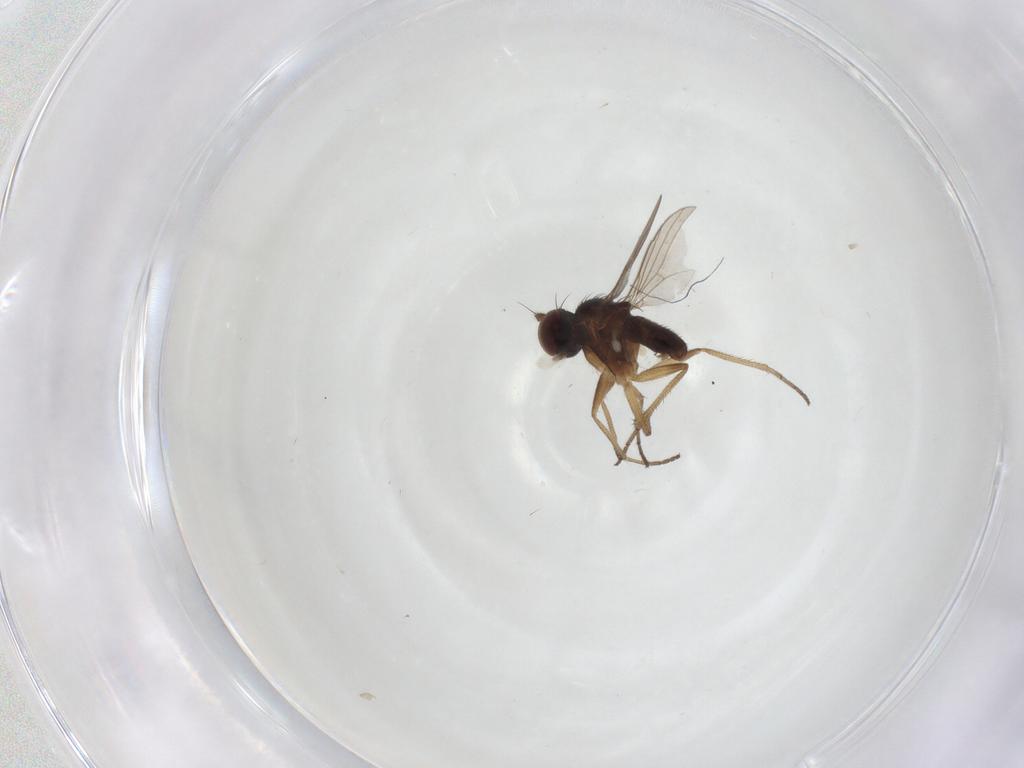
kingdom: Animalia
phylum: Arthropoda
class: Insecta
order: Diptera
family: Dolichopodidae
